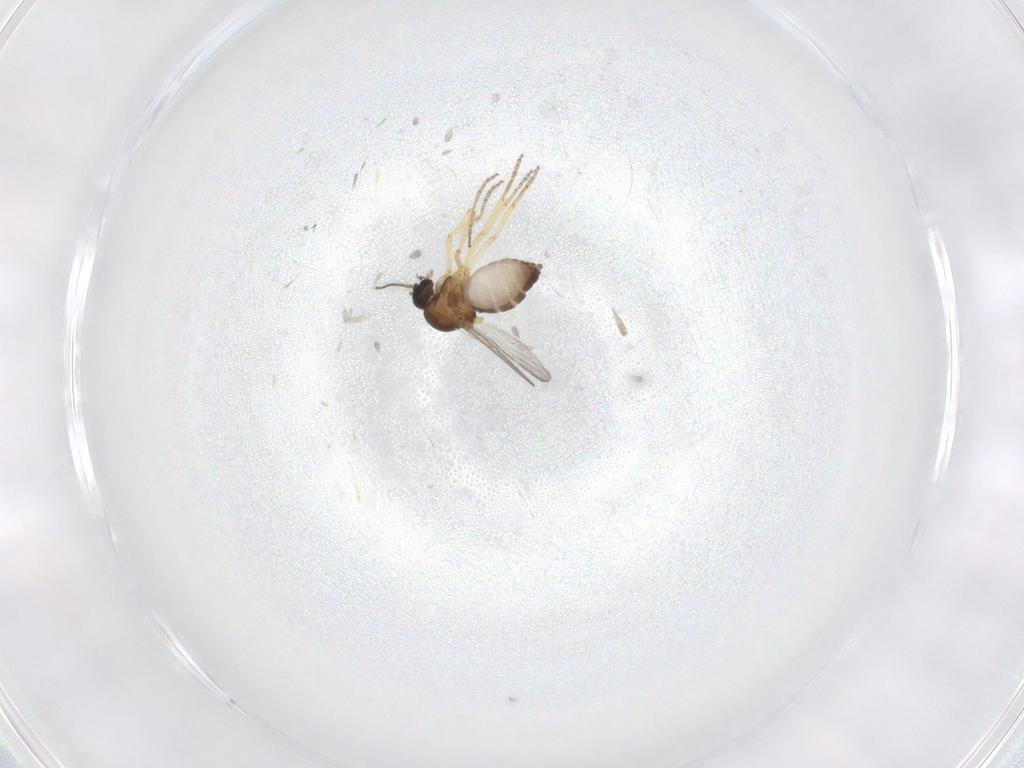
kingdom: Animalia
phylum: Arthropoda
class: Insecta
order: Diptera
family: Ceratopogonidae
